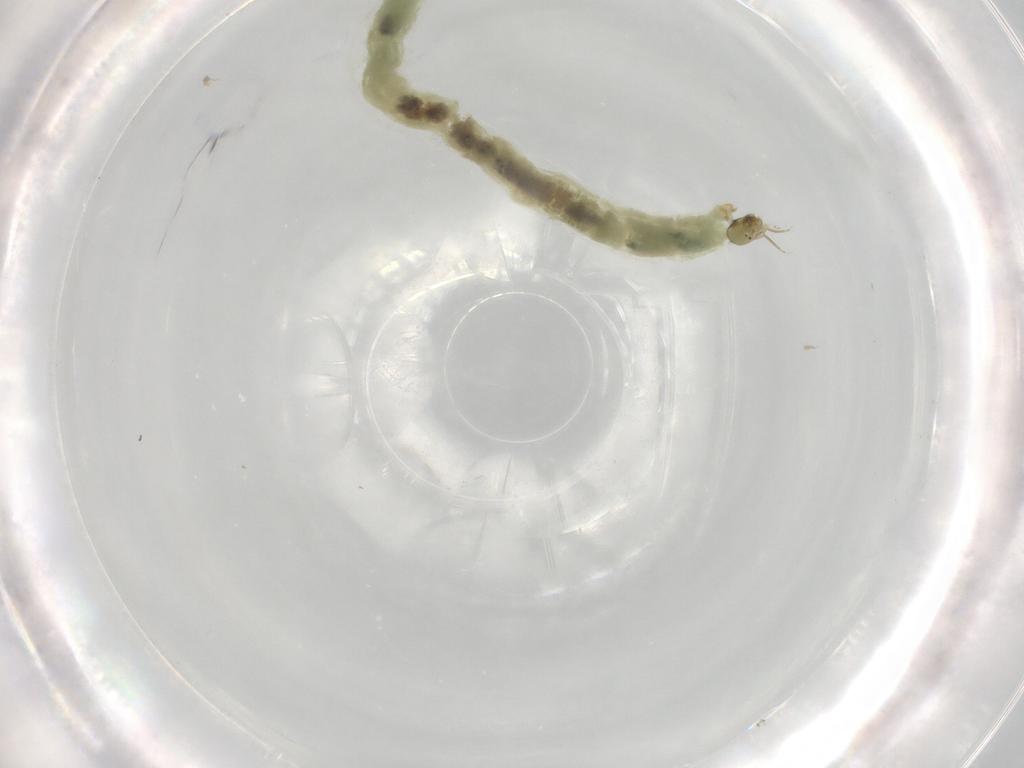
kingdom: Animalia
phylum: Arthropoda
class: Insecta
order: Diptera
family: Chironomidae
